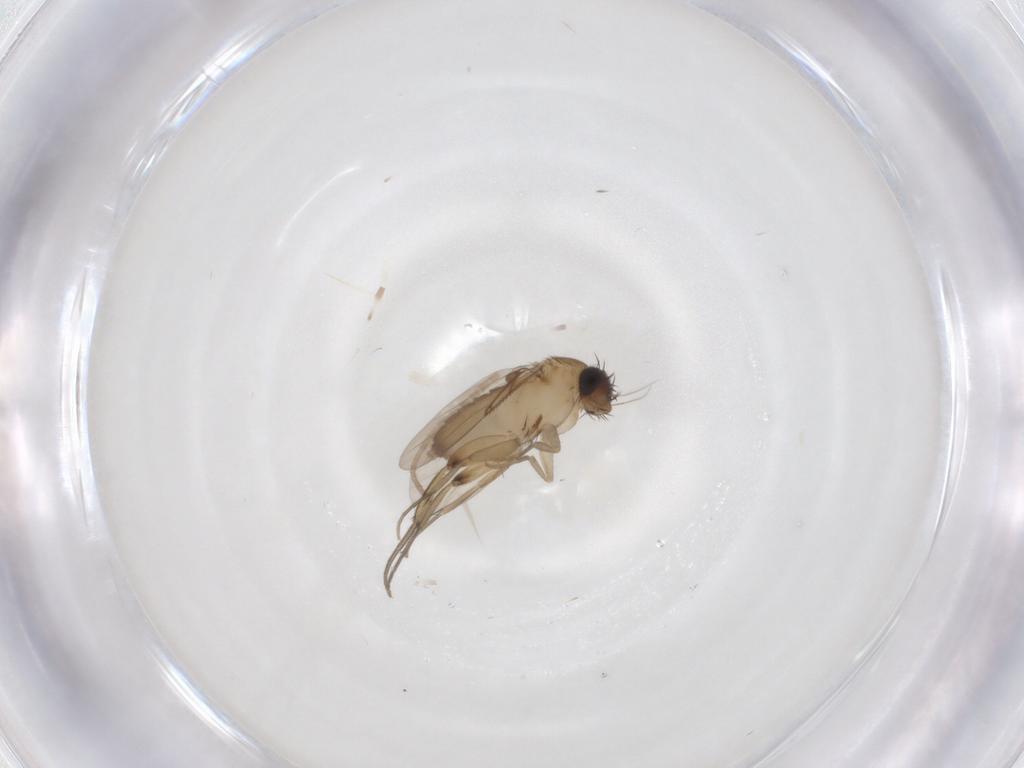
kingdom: Animalia
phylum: Arthropoda
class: Insecta
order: Diptera
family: Phoridae
